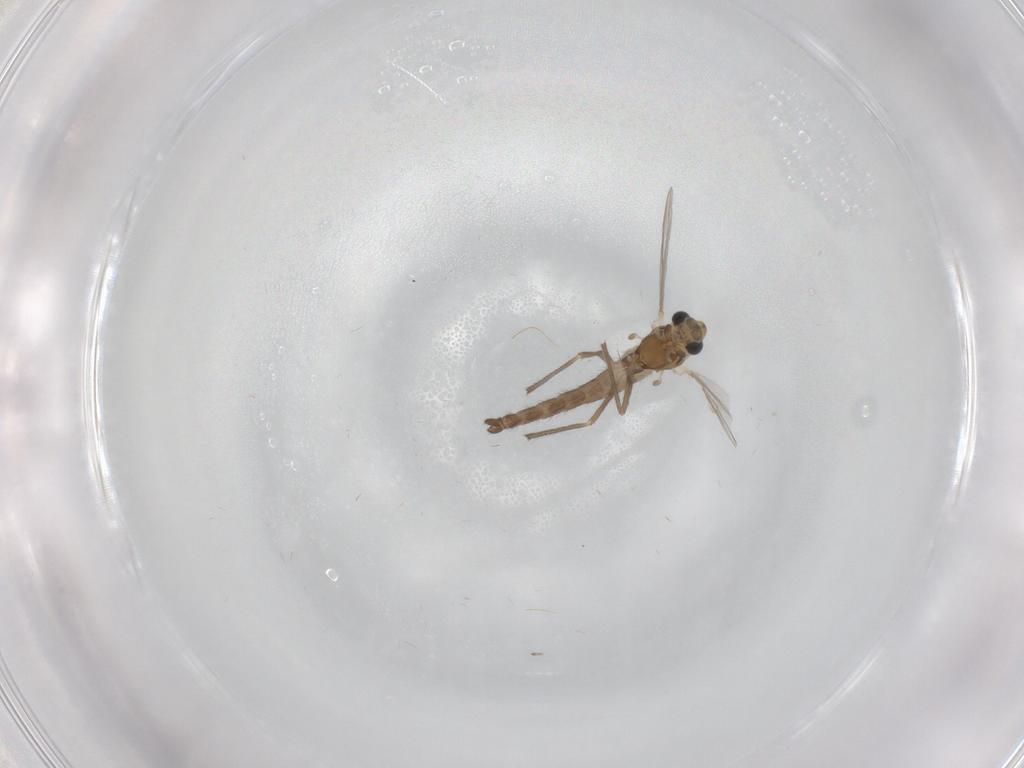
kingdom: Animalia
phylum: Arthropoda
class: Insecta
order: Diptera
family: Chironomidae
